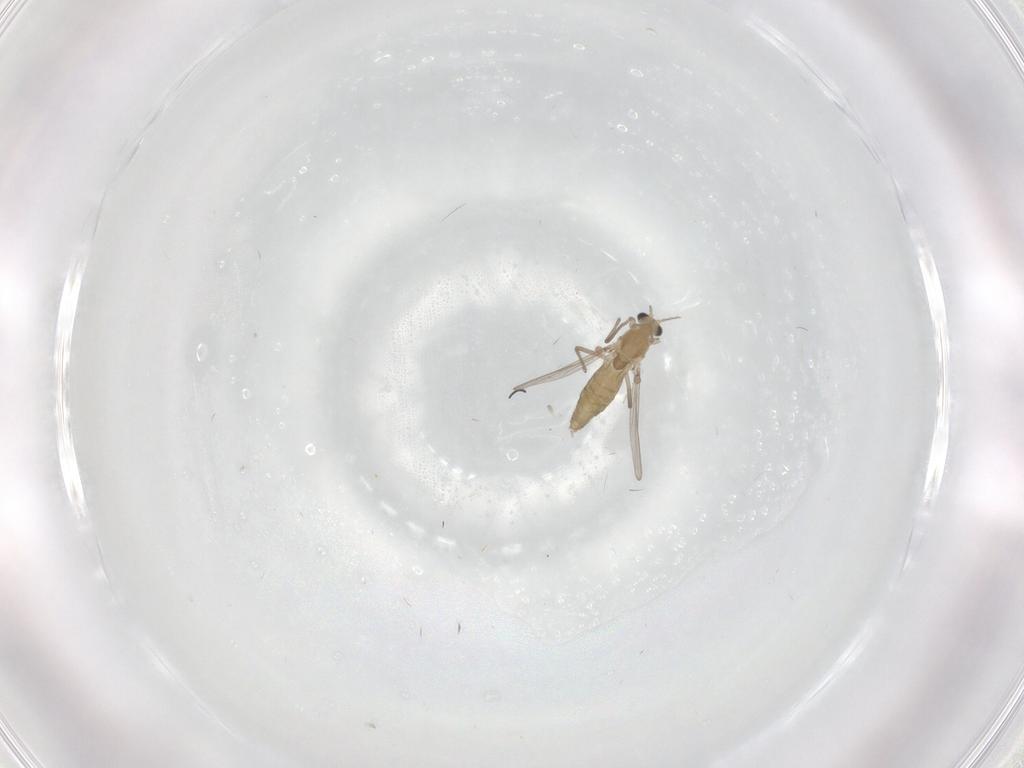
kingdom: Animalia
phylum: Arthropoda
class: Insecta
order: Diptera
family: Chironomidae
